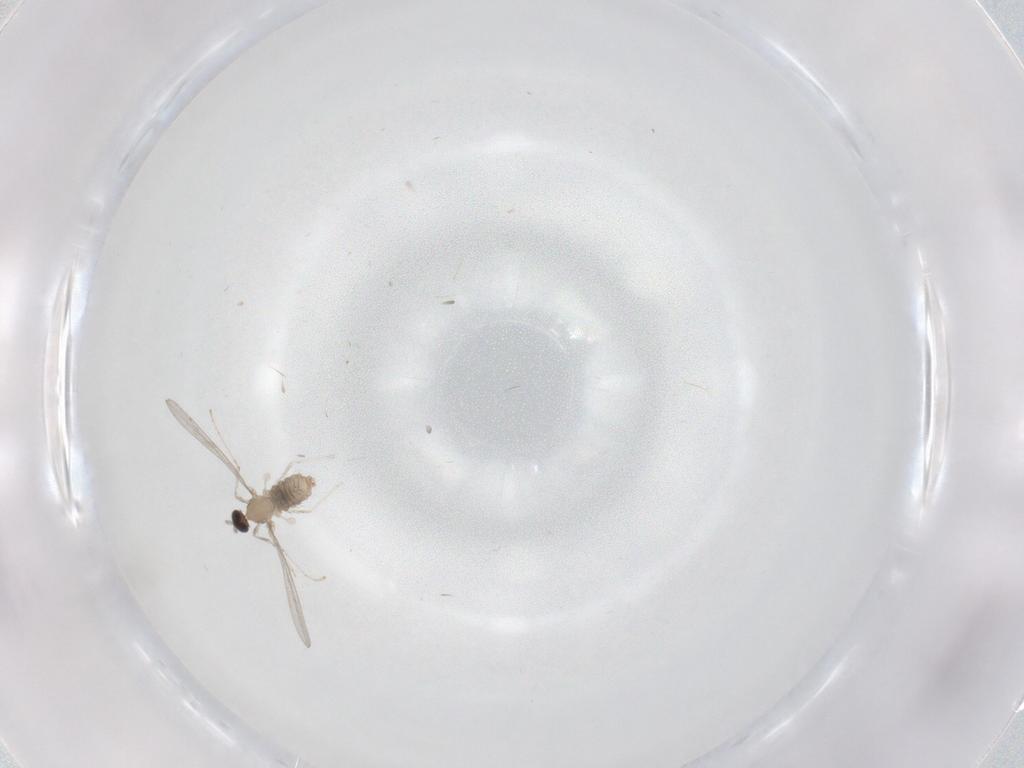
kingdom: Animalia
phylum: Arthropoda
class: Insecta
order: Diptera
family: Cecidomyiidae
